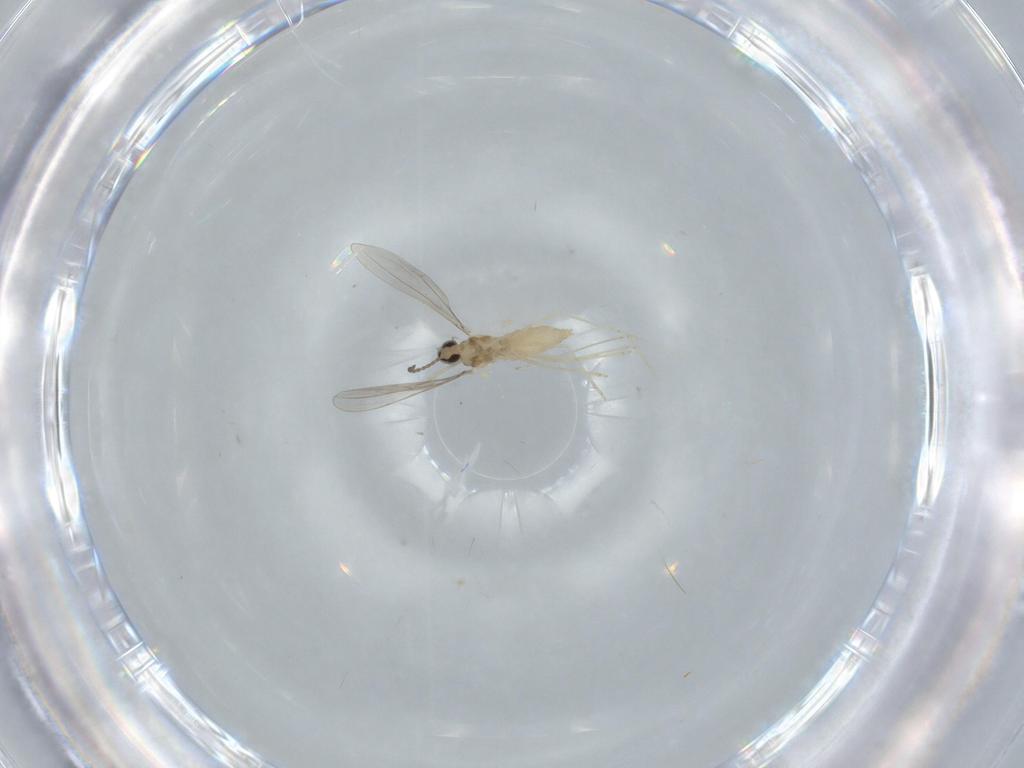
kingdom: Animalia
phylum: Arthropoda
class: Insecta
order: Diptera
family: Cecidomyiidae
